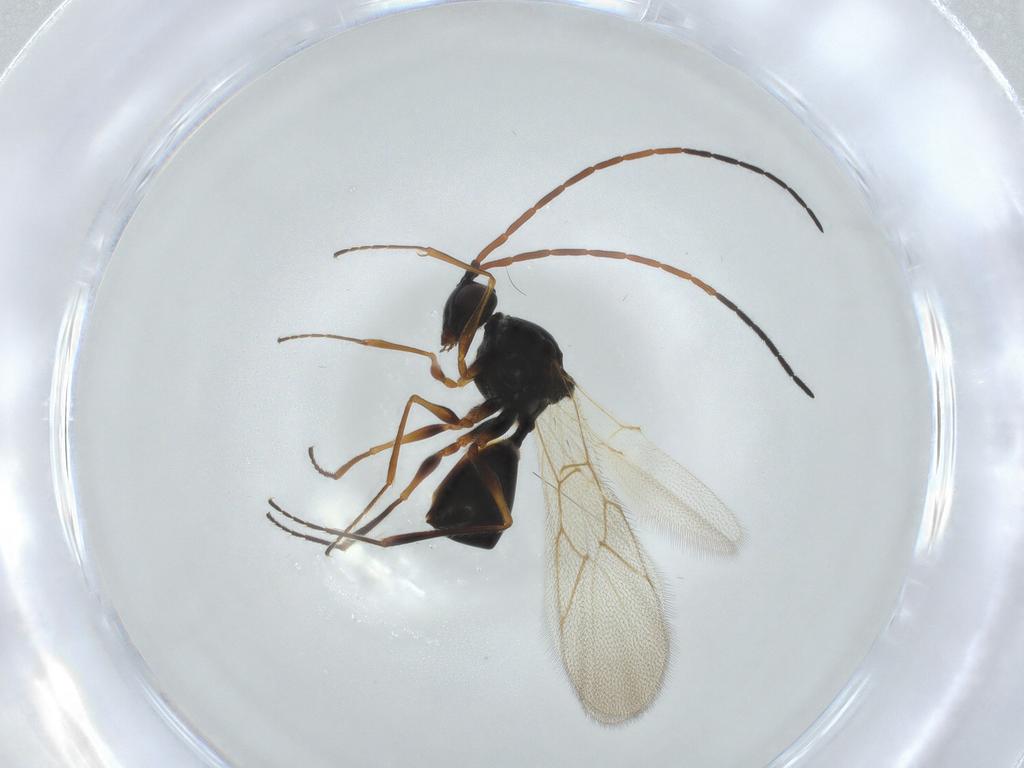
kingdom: Animalia
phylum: Arthropoda
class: Insecta
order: Hymenoptera
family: Figitidae
